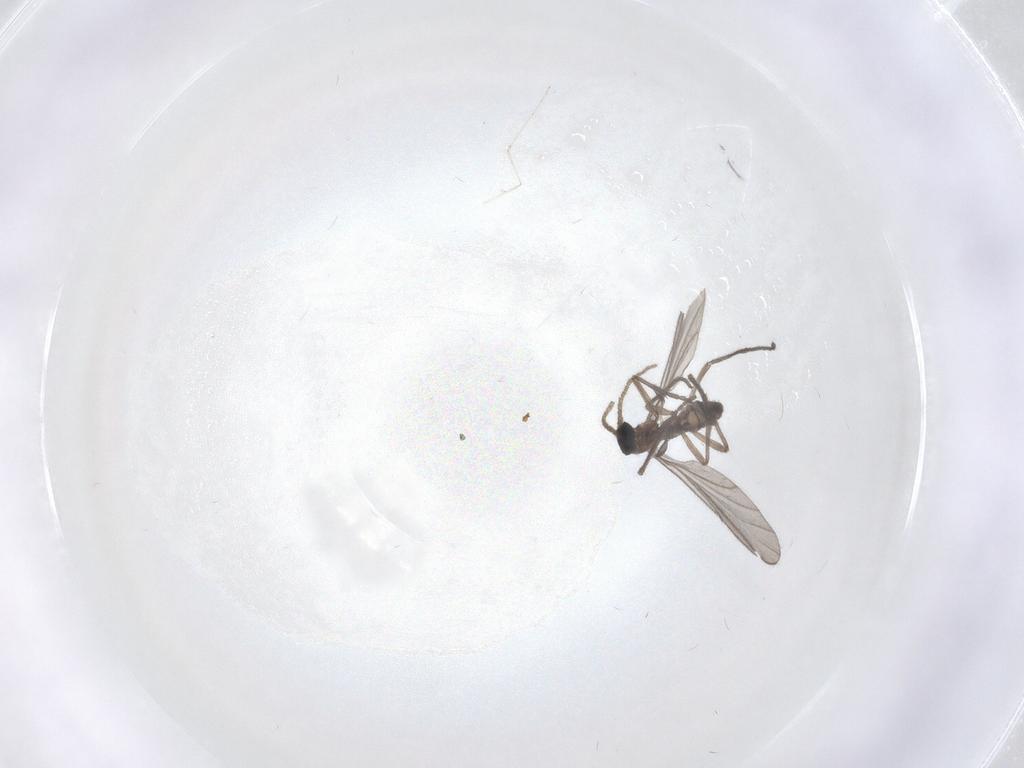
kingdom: Animalia
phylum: Arthropoda
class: Insecta
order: Diptera
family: Sciaridae
